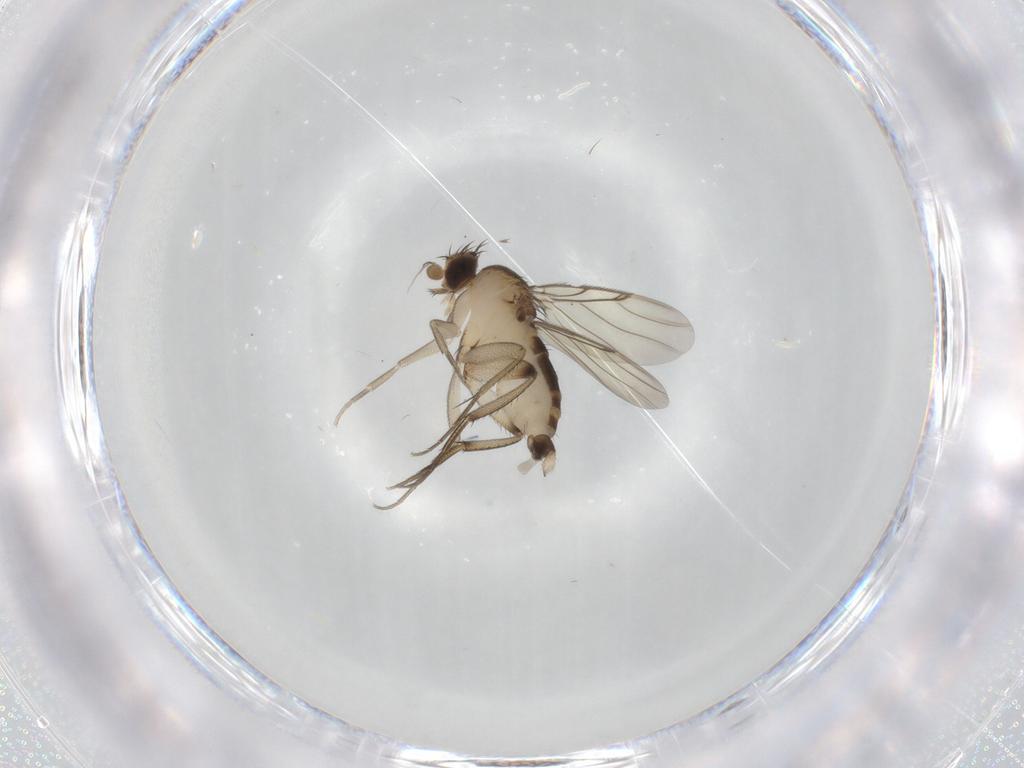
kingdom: Animalia
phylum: Arthropoda
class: Insecta
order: Diptera
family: Phoridae
